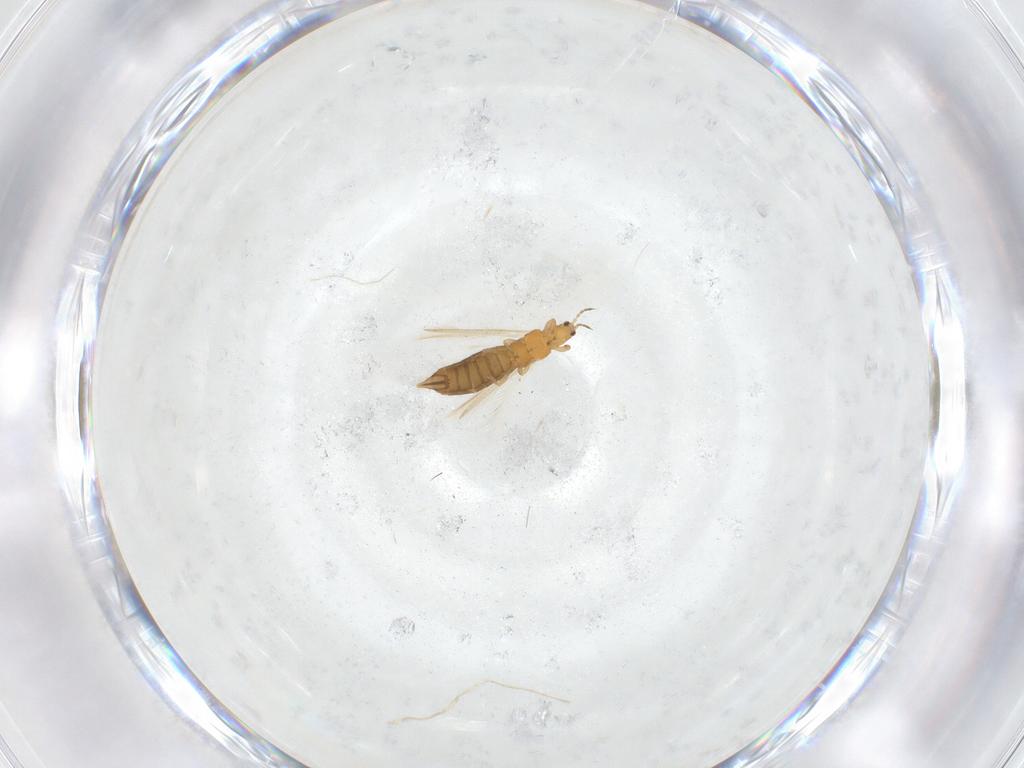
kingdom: Animalia
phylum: Arthropoda
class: Insecta
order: Thysanoptera
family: Thripidae
